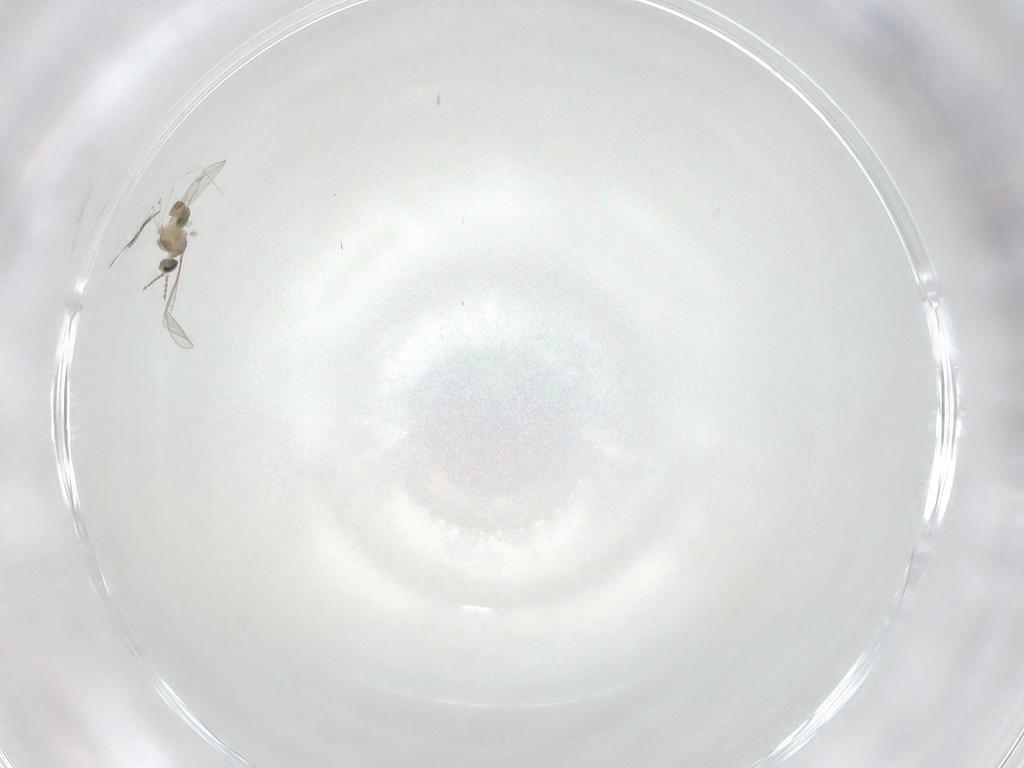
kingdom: Animalia
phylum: Arthropoda
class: Insecta
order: Diptera
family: Cecidomyiidae
